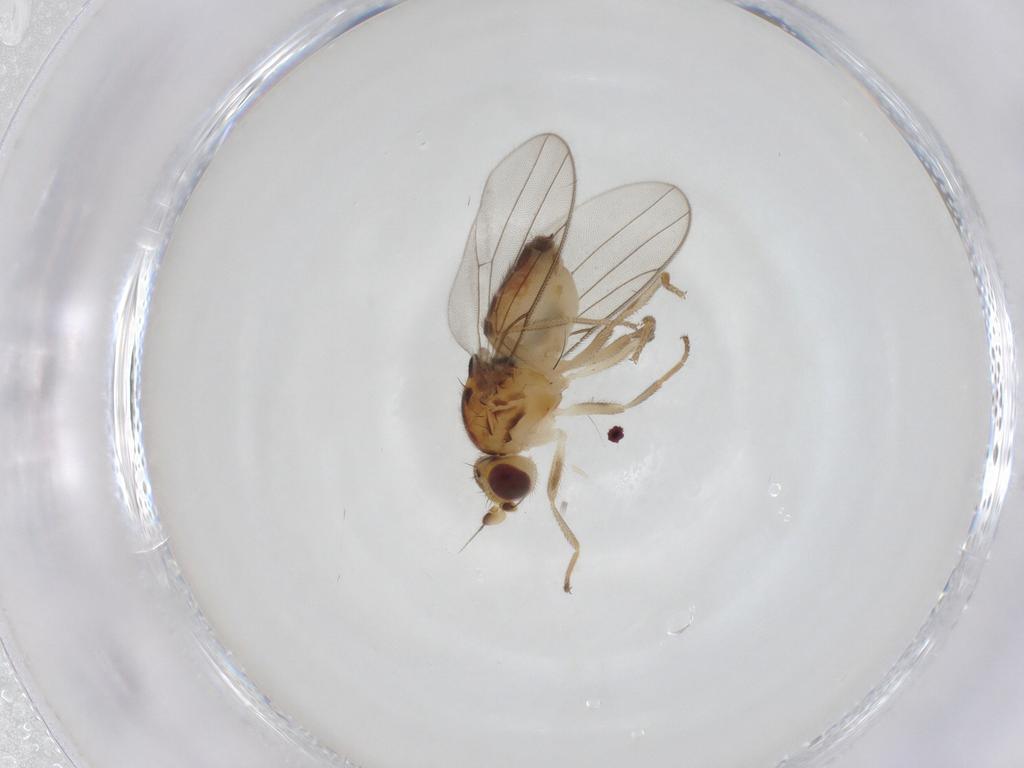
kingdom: Animalia
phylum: Arthropoda
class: Insecta
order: Diptera
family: Chloropidae
